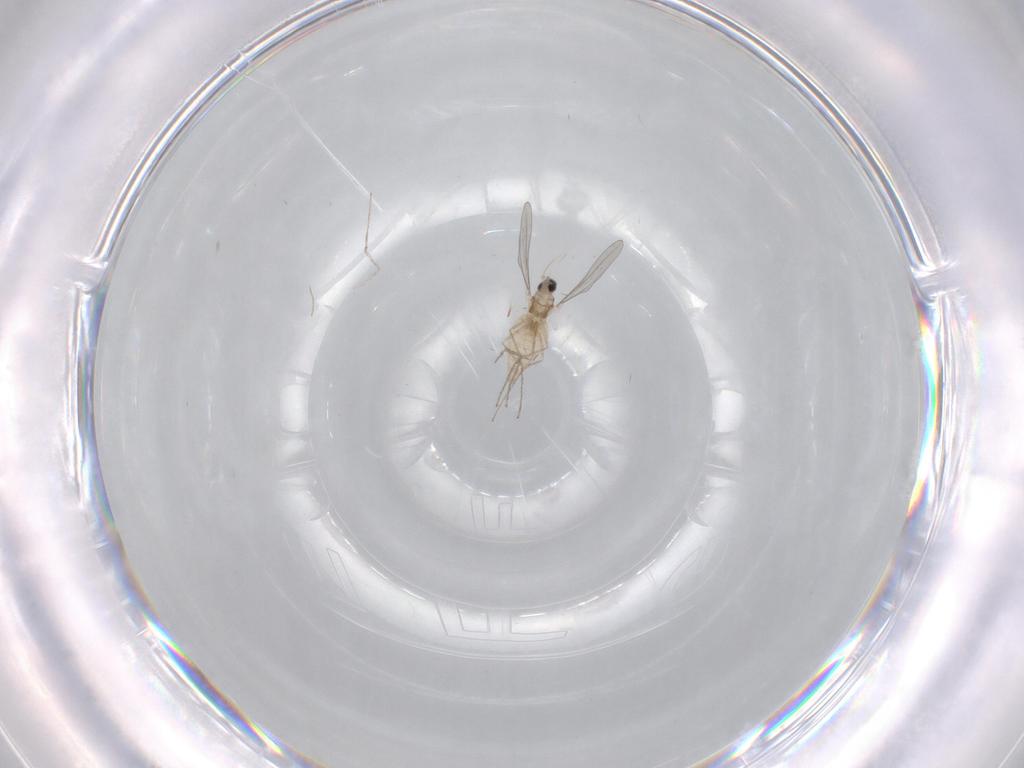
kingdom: Animalia
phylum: Arthropoda
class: Insecta
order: Diptera
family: Cecidomyiidae
